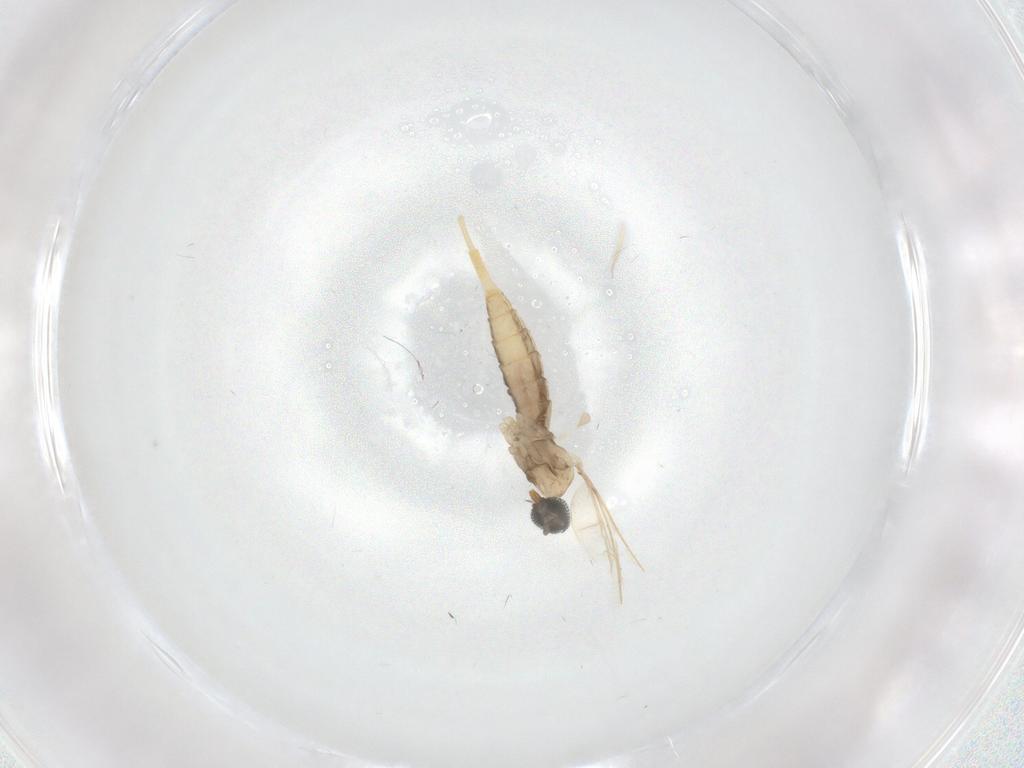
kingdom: Animalia
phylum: Arthropoda
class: Insecta
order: Diptera
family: Cecidomyiidae
